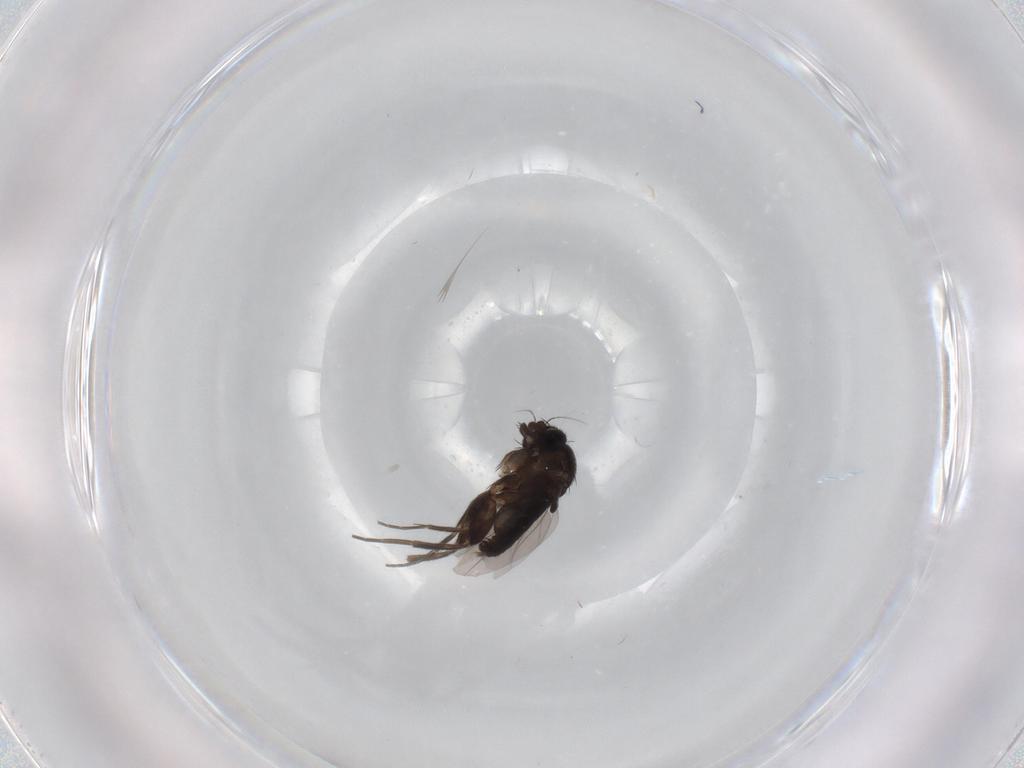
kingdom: Animalia
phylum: Arthropoda
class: Insecta
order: Diptera
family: Phoridae
